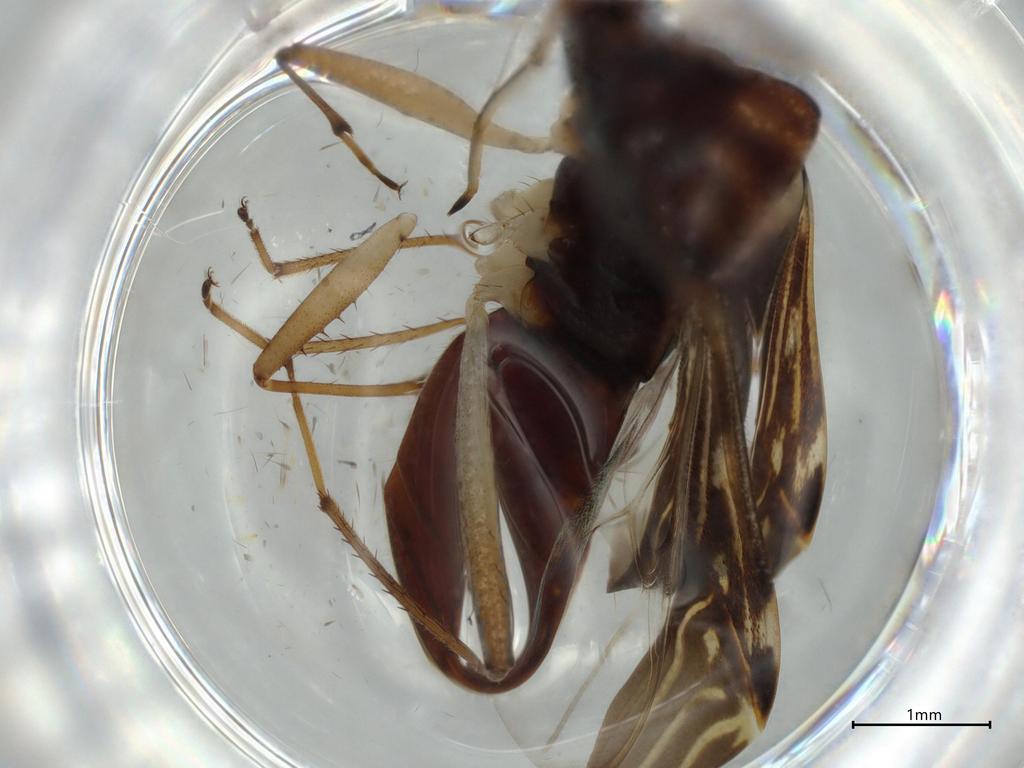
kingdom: Animalia
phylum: Arthropoda
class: Insecta
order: Hemiptera
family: Rhyparochromidae
